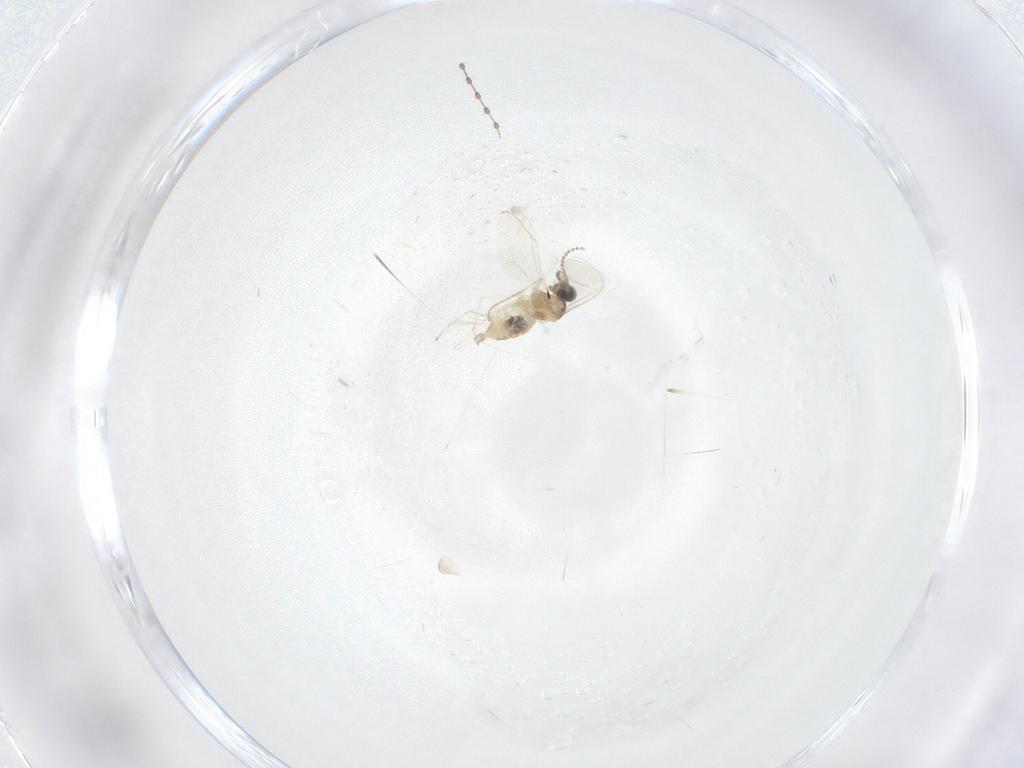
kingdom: Animalia
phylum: Arthropoda
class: Insecta
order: Diptera
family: Cecidomyiidae
